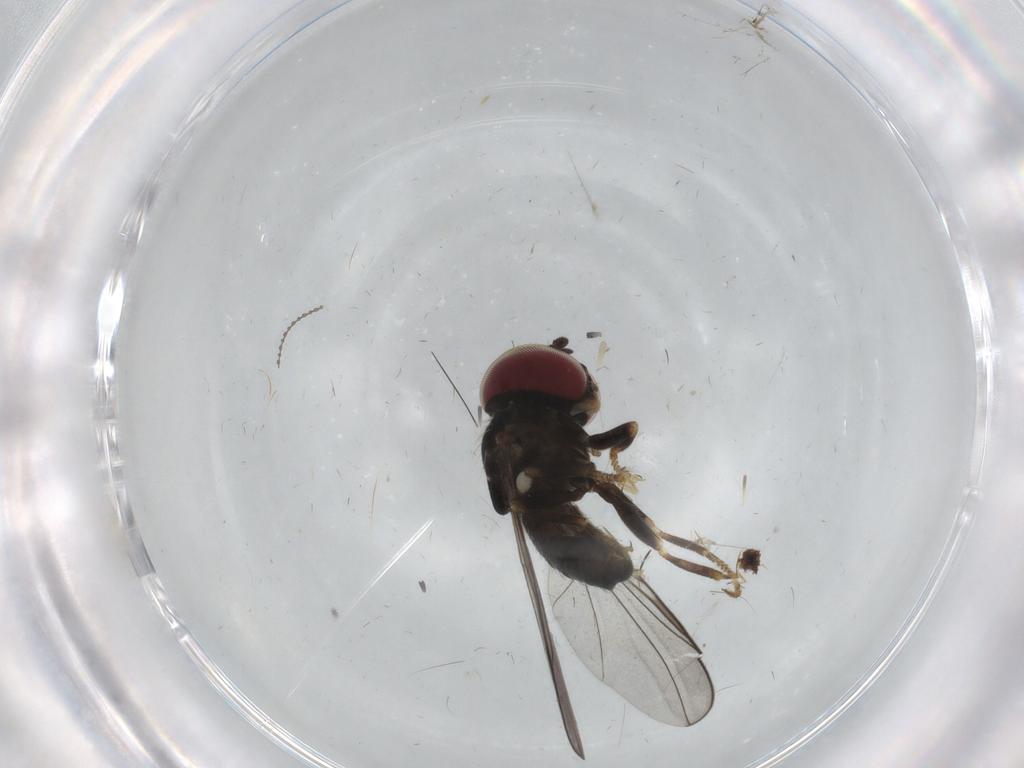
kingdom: Animalia
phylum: Arthropoda
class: Insecta
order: Diptera
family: Pipunculidae
